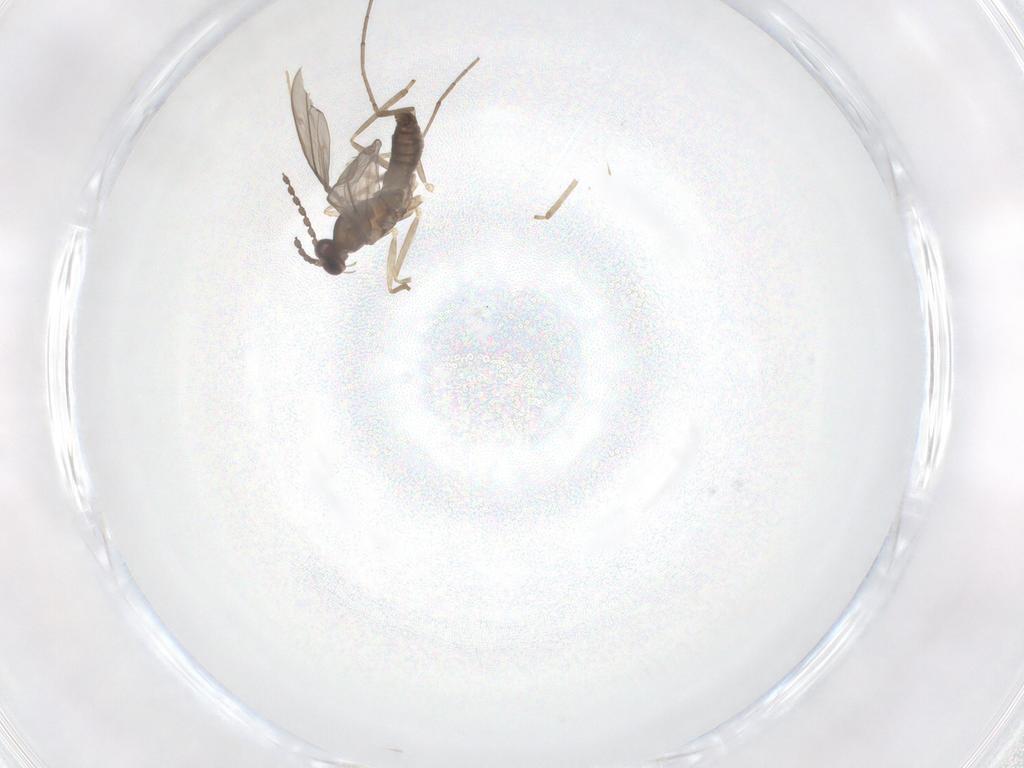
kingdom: Animalia
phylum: Arthropoda
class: Insecta
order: Diptera
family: Cecidomyiidae
